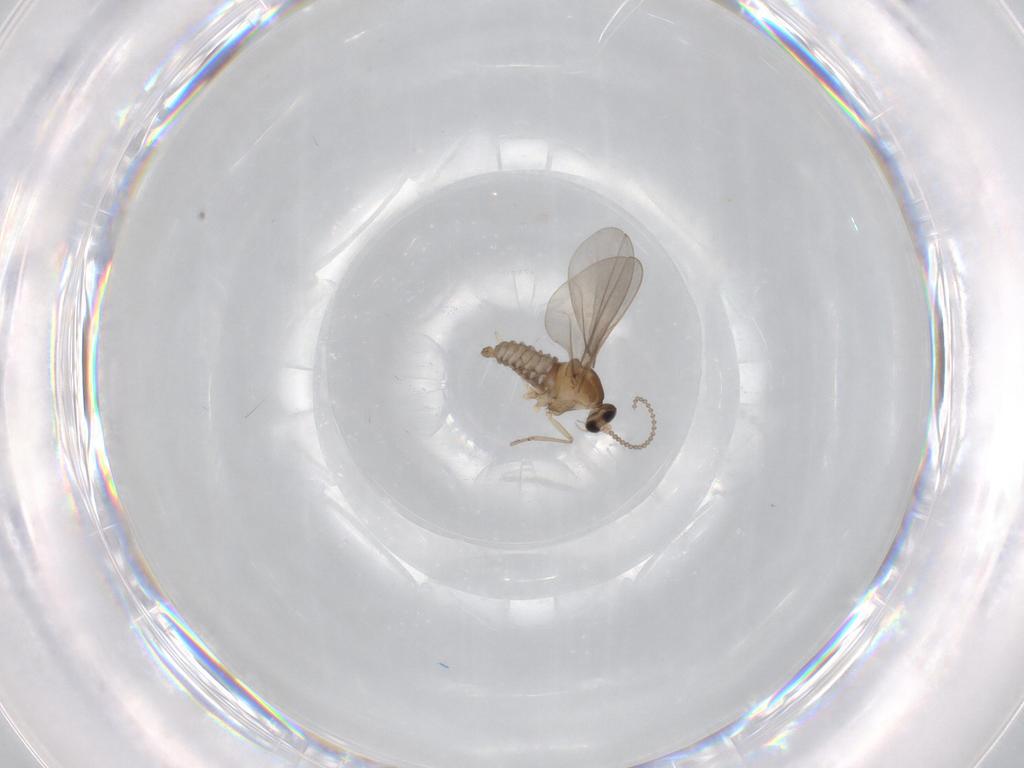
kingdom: Animalia
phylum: Arthropoda
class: Insecta
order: Diptera
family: Cecidomyiidae
